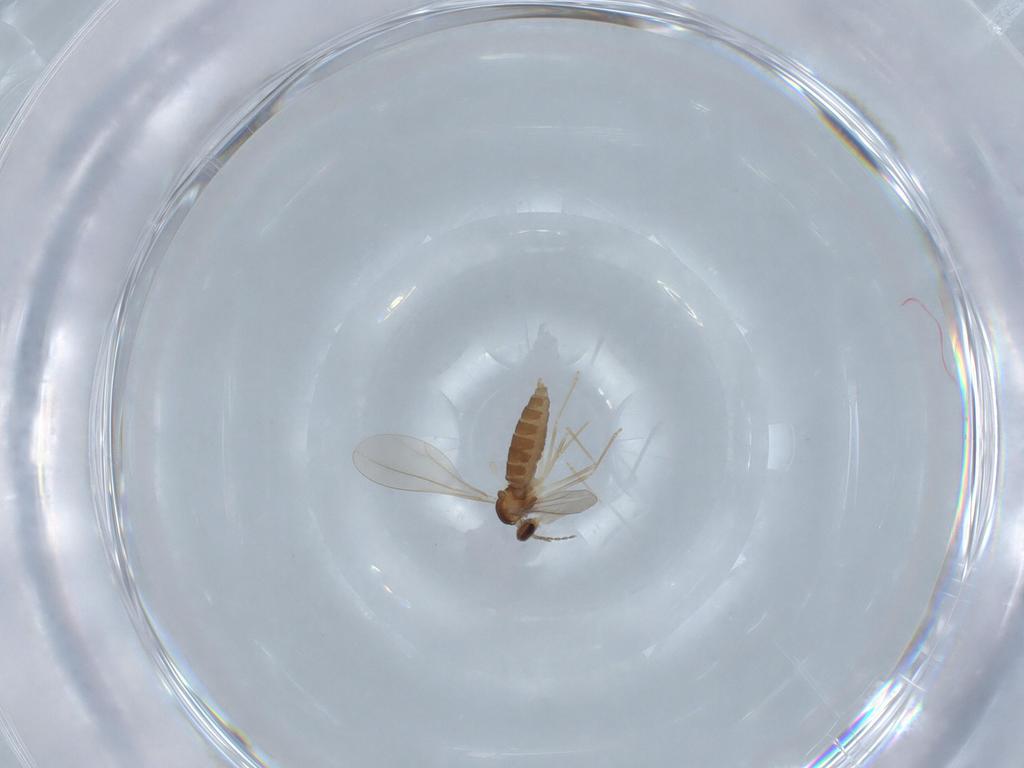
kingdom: Animalia
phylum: Arthropoda
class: Insecta
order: Diptera
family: Cecidomyiidae
